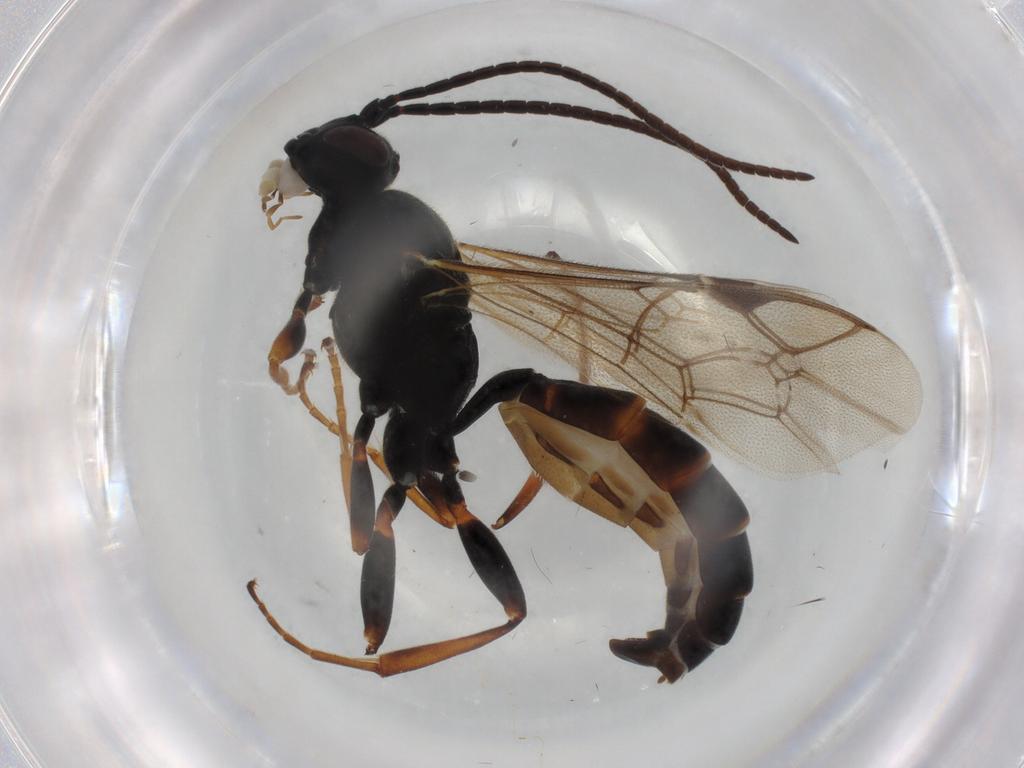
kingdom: Animalia
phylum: Arthropoda
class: Insecta
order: Hymenoptera
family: Ichneumonidae
